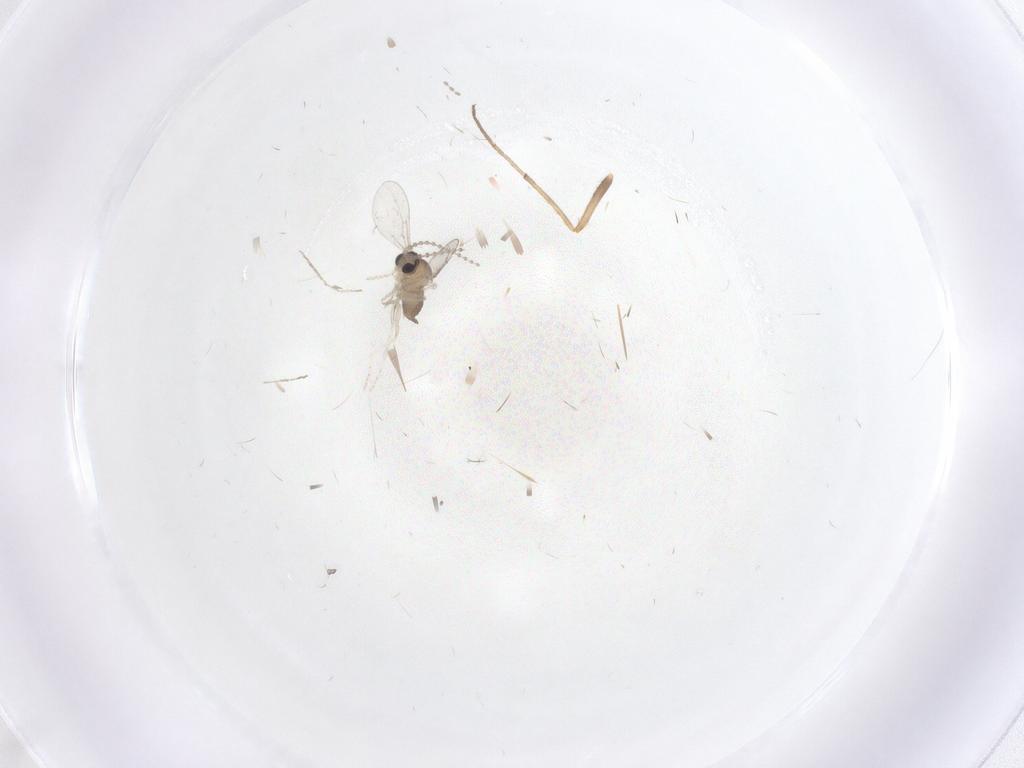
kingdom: Animalia
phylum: Arthropoda
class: Insecta
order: Diptera
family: Cecidomyiidae
